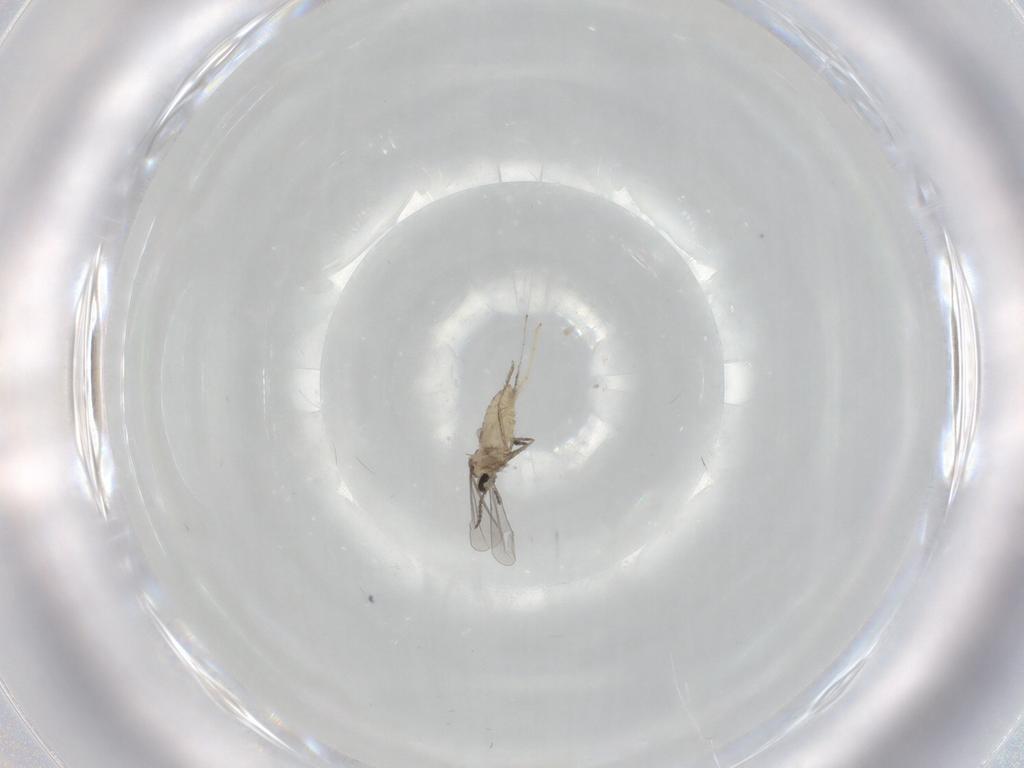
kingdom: Animalia
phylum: Arthropoda
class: Insecta
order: Diptera
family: Chironomidae
